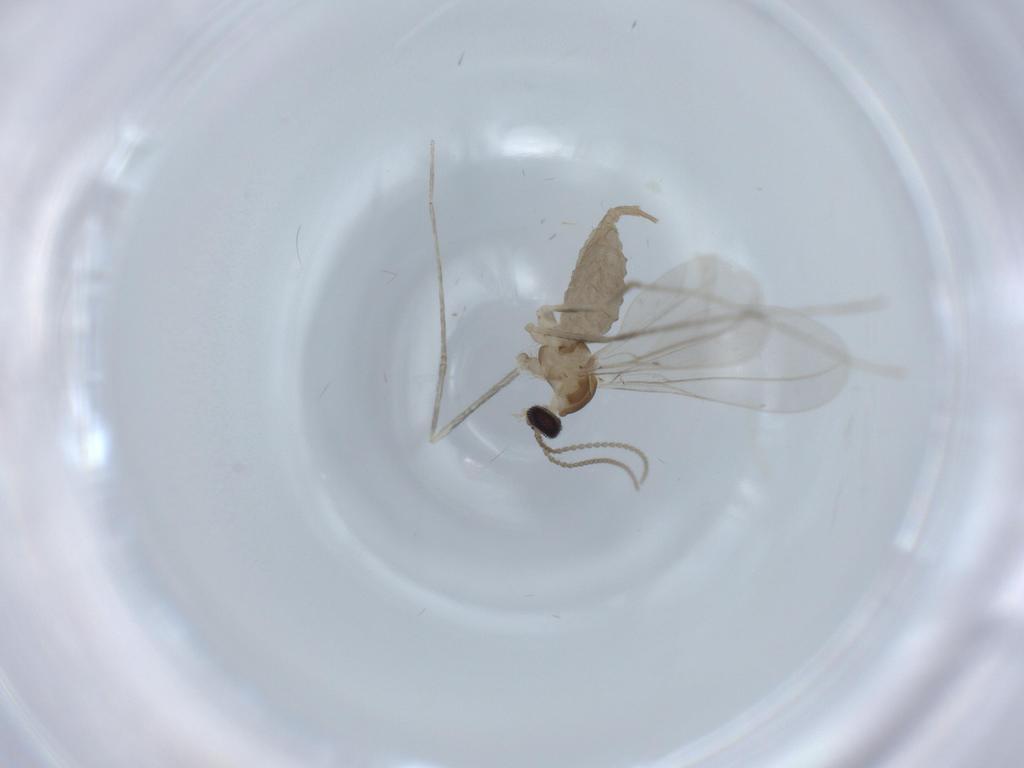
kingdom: Animalia
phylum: Arthropoda
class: Insecta
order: Diptera
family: Cecidomyiidae
